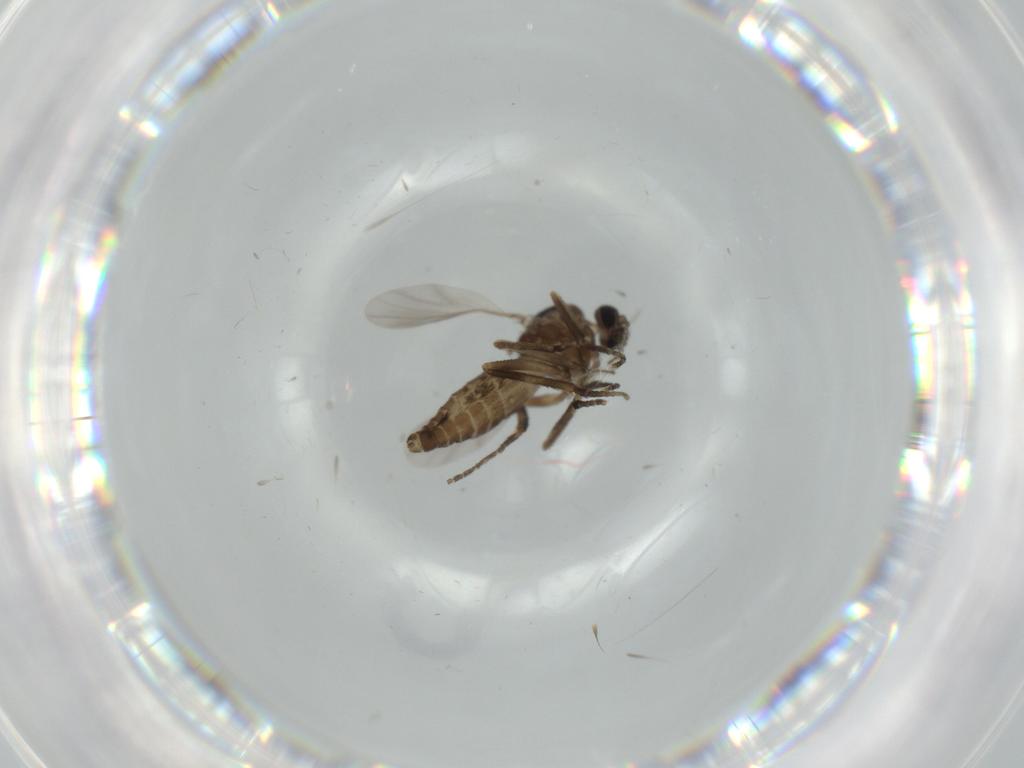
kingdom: Animalia
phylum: Arthropoda
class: Insecta
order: Diptera
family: Ceratopogonidae
